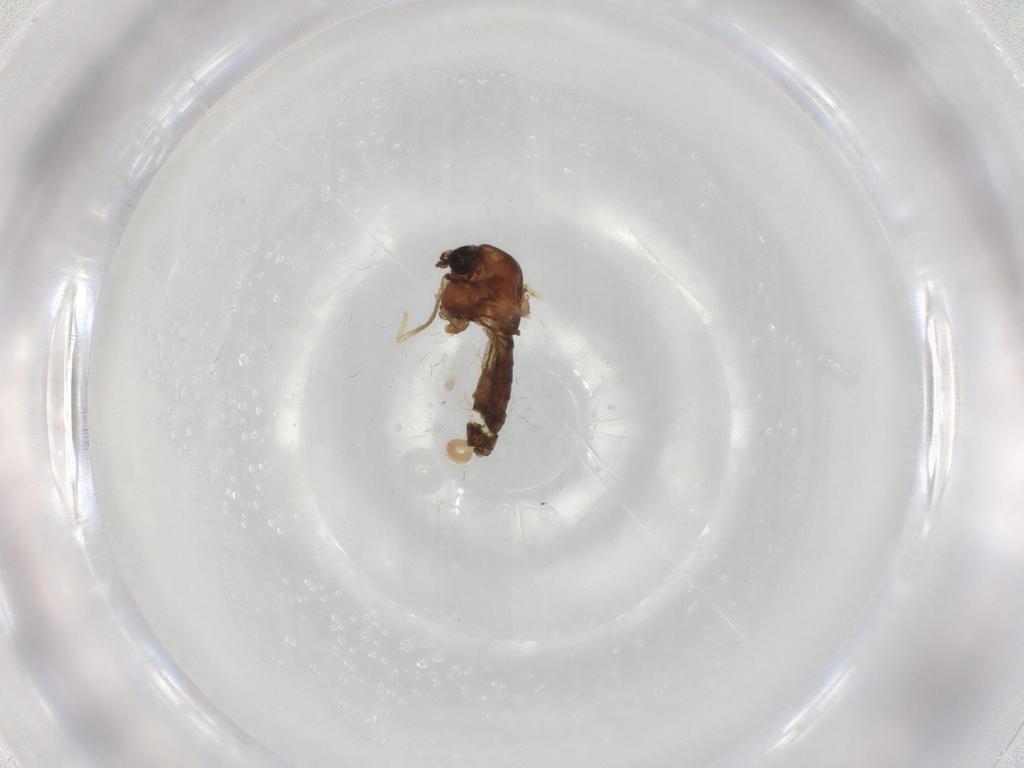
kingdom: Animalia
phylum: Arthropoda
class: Insecta
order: Diptera
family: Chironomidae
